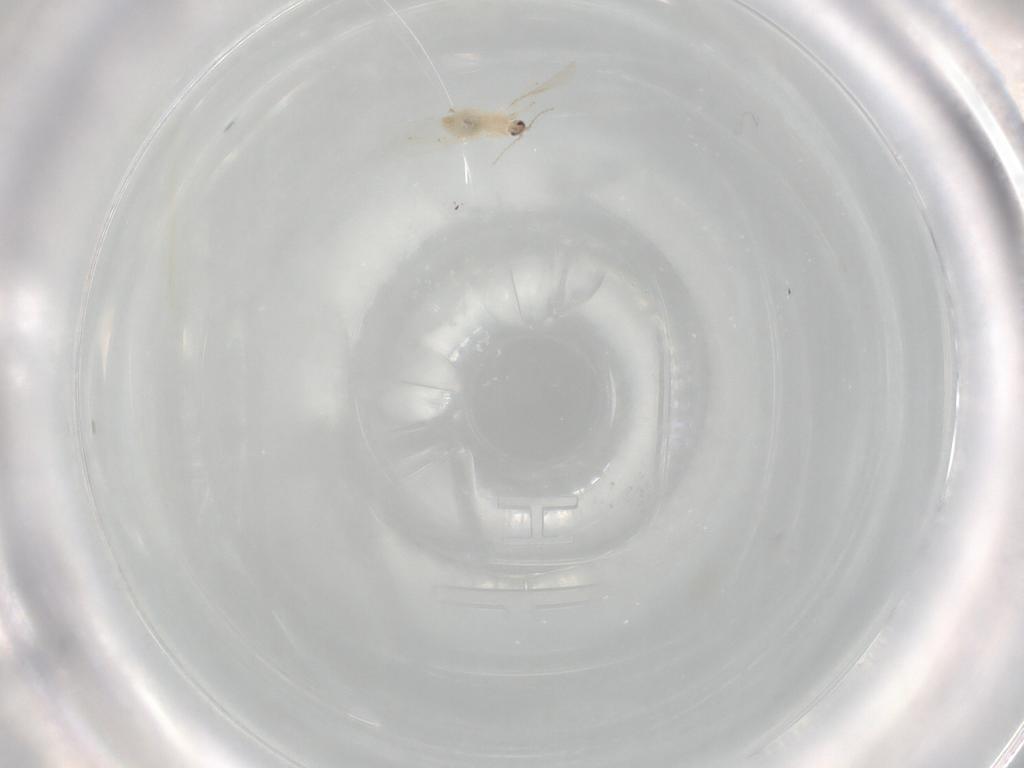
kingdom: Animalia
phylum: Arthropoda
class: Insecta
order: Diptera
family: Cecidomyiidae
